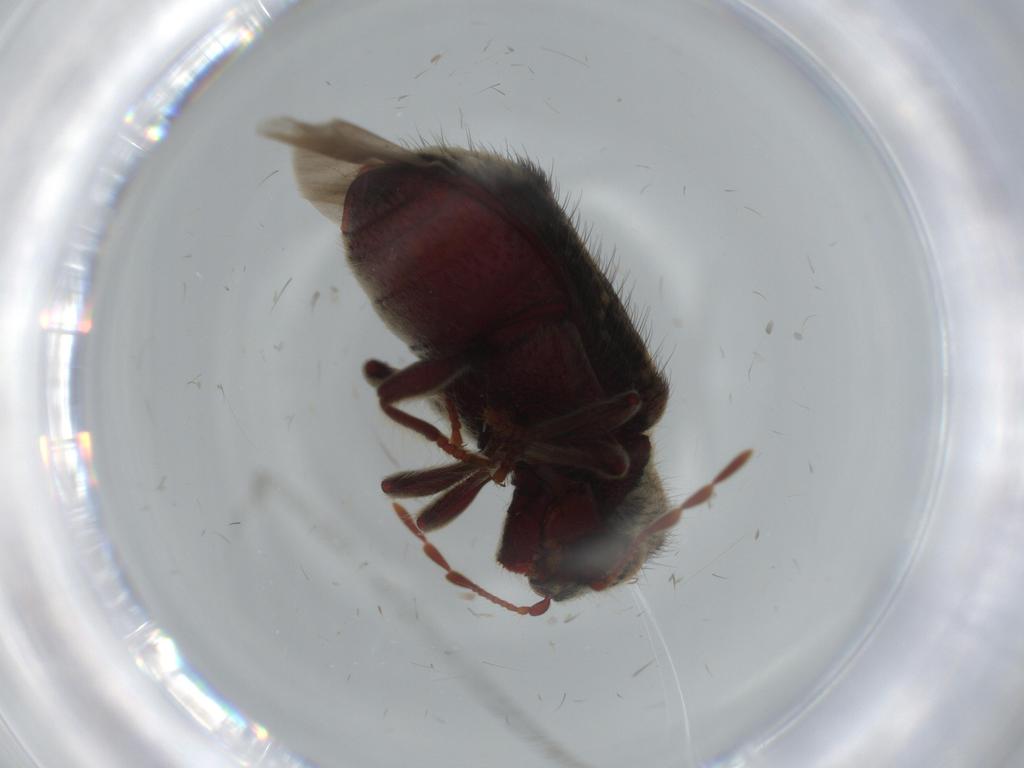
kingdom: Animalia
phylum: Arthropoda
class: Insecta
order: Coleoptera
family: Ptinidae
